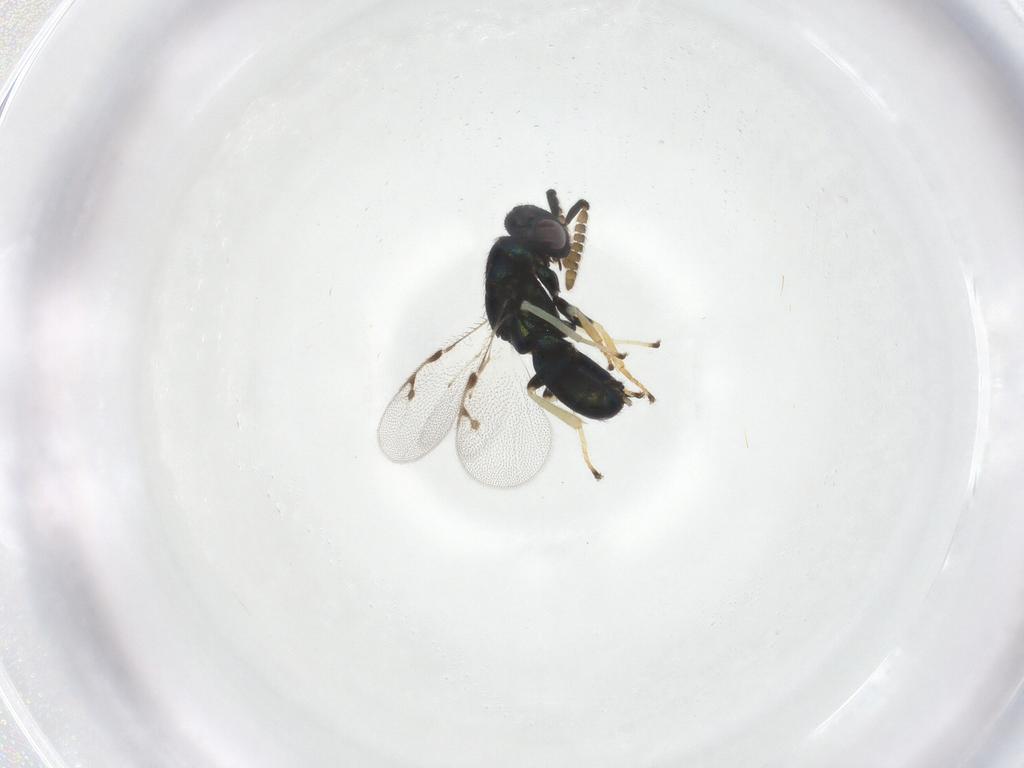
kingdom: Animalia
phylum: Arthropoda
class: Insecta
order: Hymenoptera
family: Pirenidae
